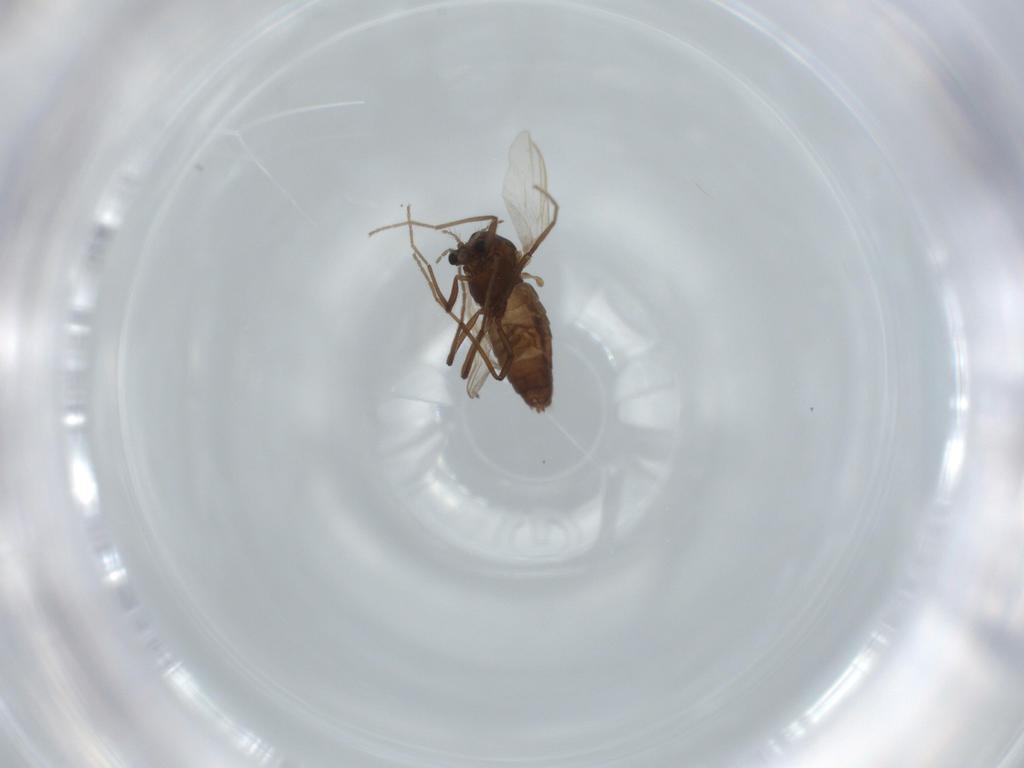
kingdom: Animalia
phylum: Arthropoda
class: Insecta
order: Diptera
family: Chironomidae
